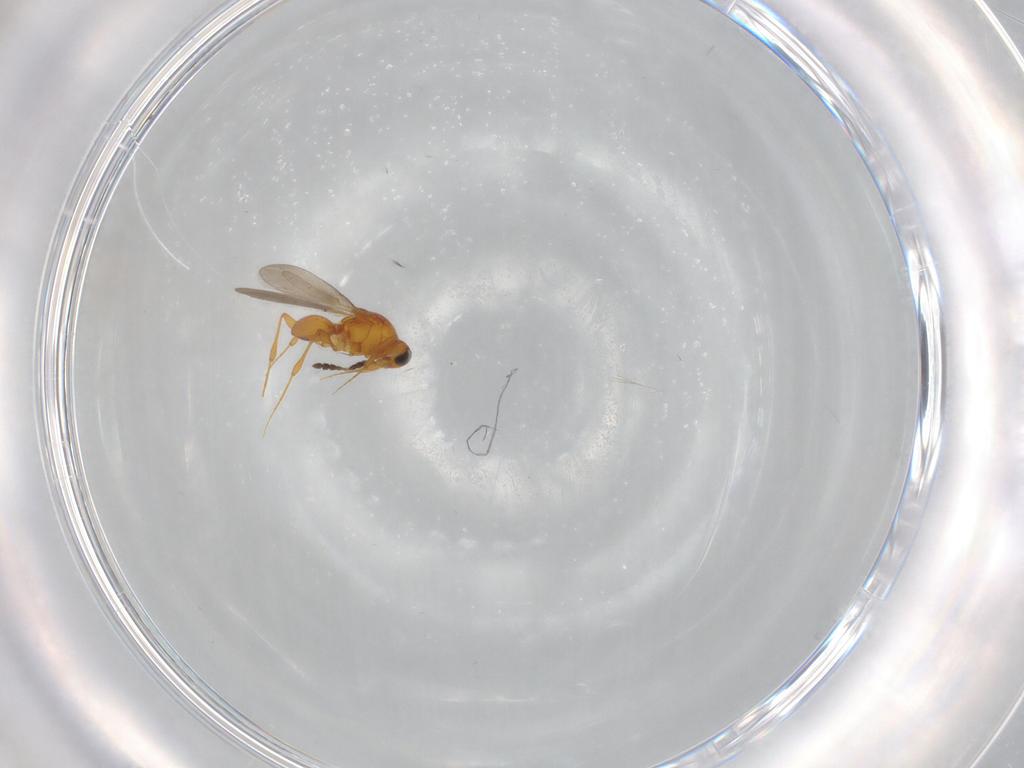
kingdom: Animalia
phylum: Arthropoda
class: Insecta
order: Hymenoptera
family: Platygastridae
